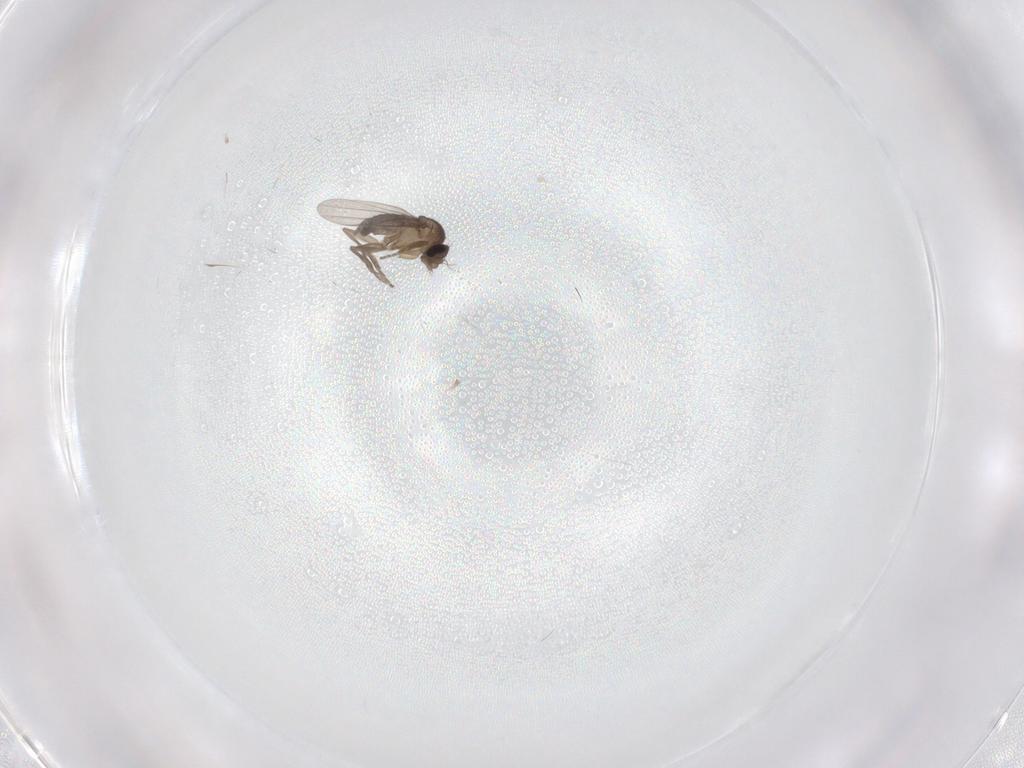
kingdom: Animalia
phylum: Arthropoda
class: Insecta
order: Diptera
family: Phoridae
